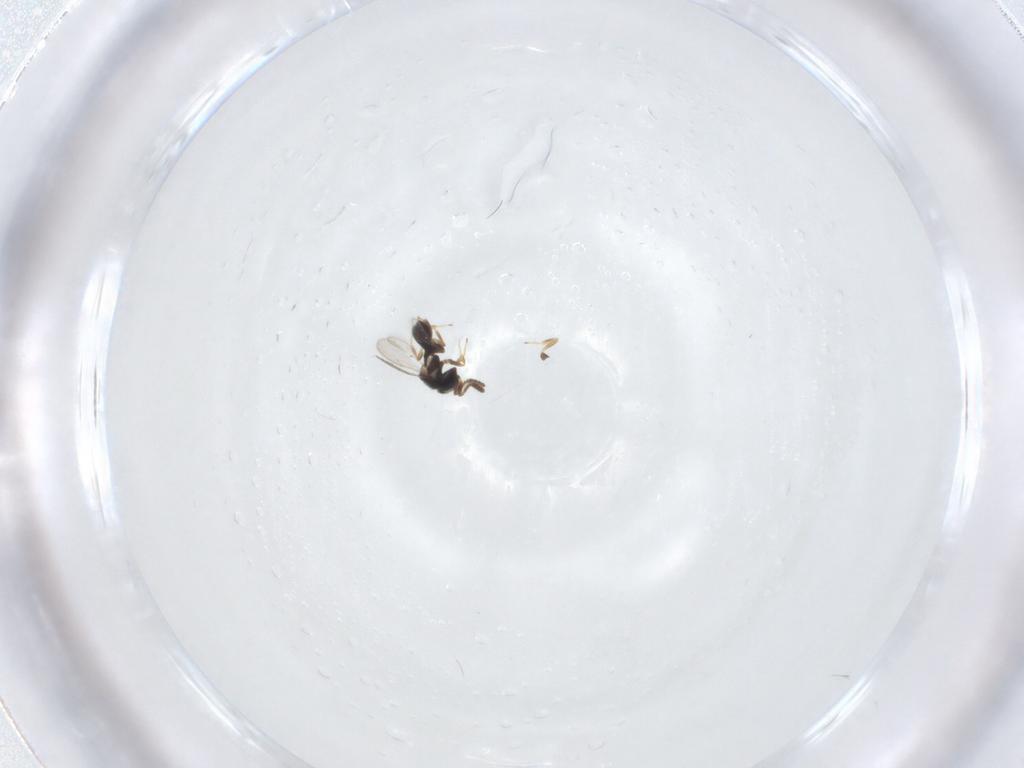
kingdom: Animalia
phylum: Arthropoda
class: Insecta
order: Hymenoptera
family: Scelionidae
